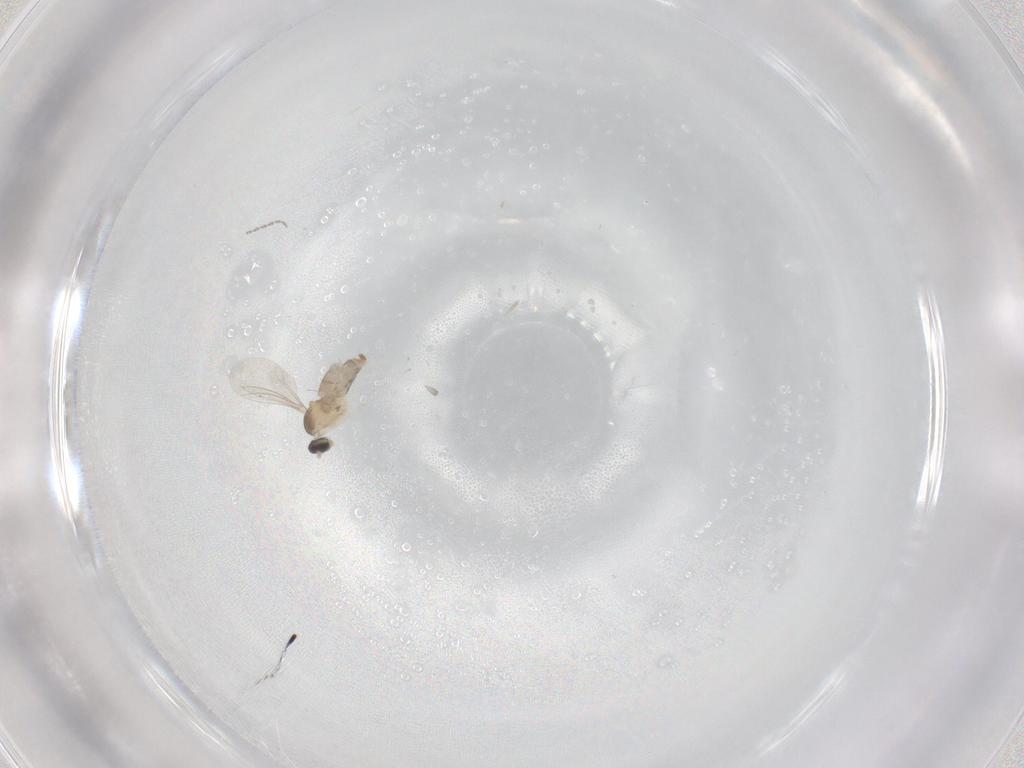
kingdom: Animalia
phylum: Arthropoda
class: Insecta
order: Diptera
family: Cecidomyiidae
